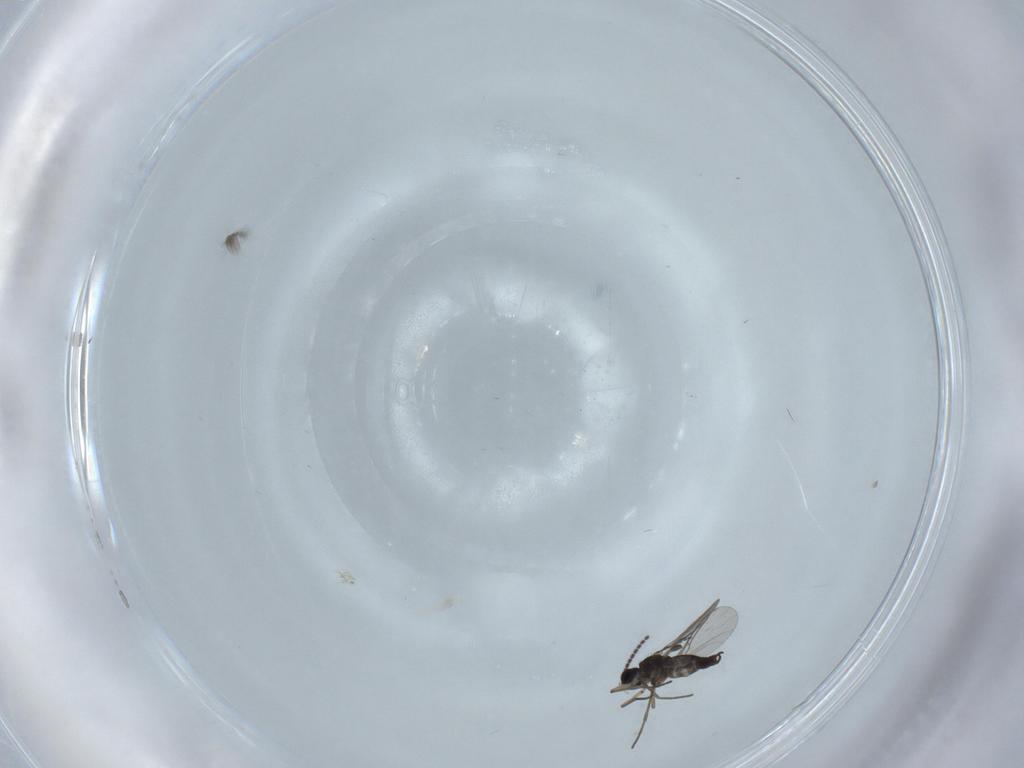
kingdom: Animalia
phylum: Arthropoda
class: Insecta
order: Diptera
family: Sciaridae
